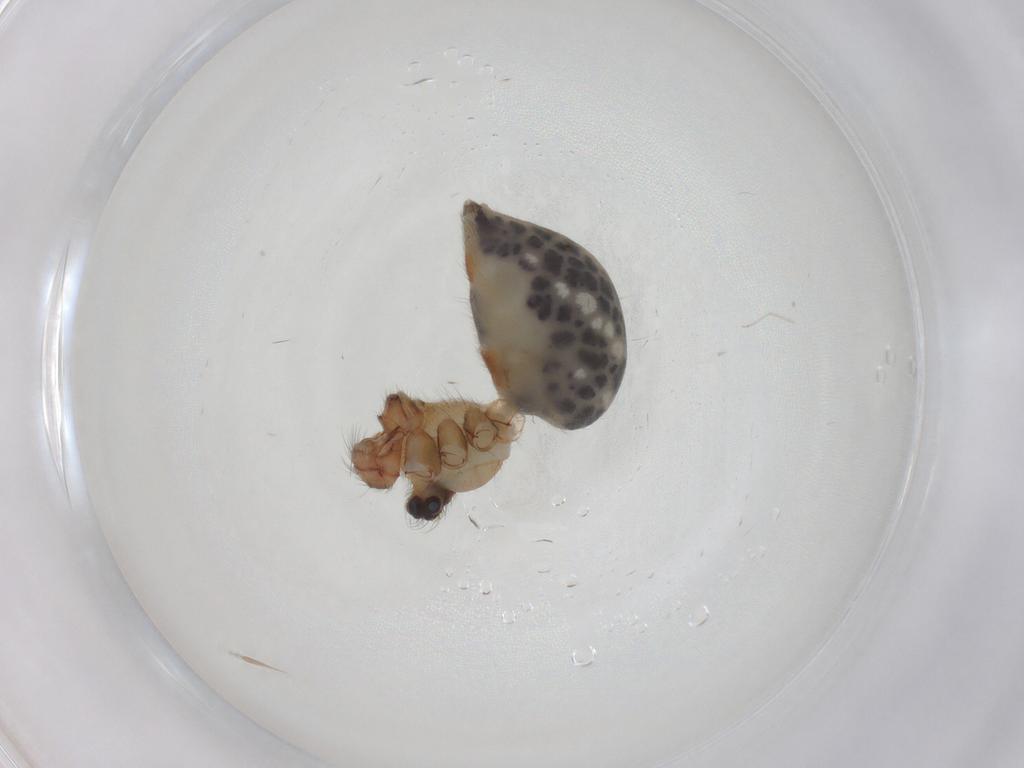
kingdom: Animalia
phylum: Arthropoda
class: Arachnida
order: Araneae
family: Pholcidae
